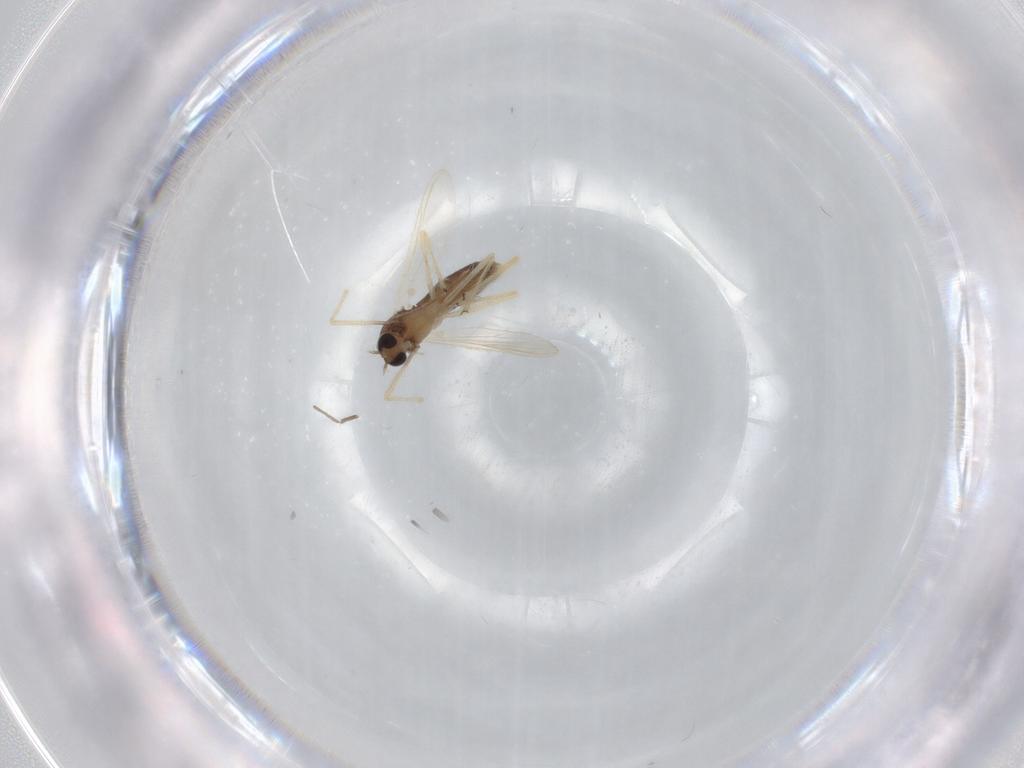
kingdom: Animalia
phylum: Arthropoda
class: Insecta
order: Diptera
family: Chironomidae
